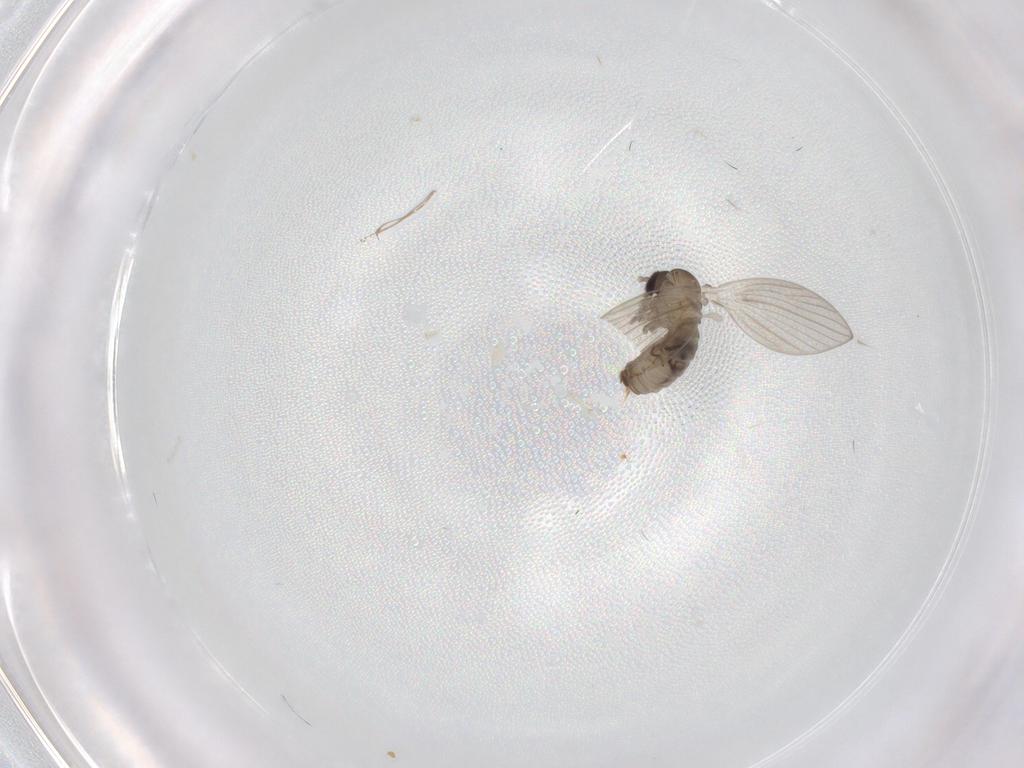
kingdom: Animalia
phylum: Arthropoda
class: Insecta
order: Diptera
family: Psychodidae
